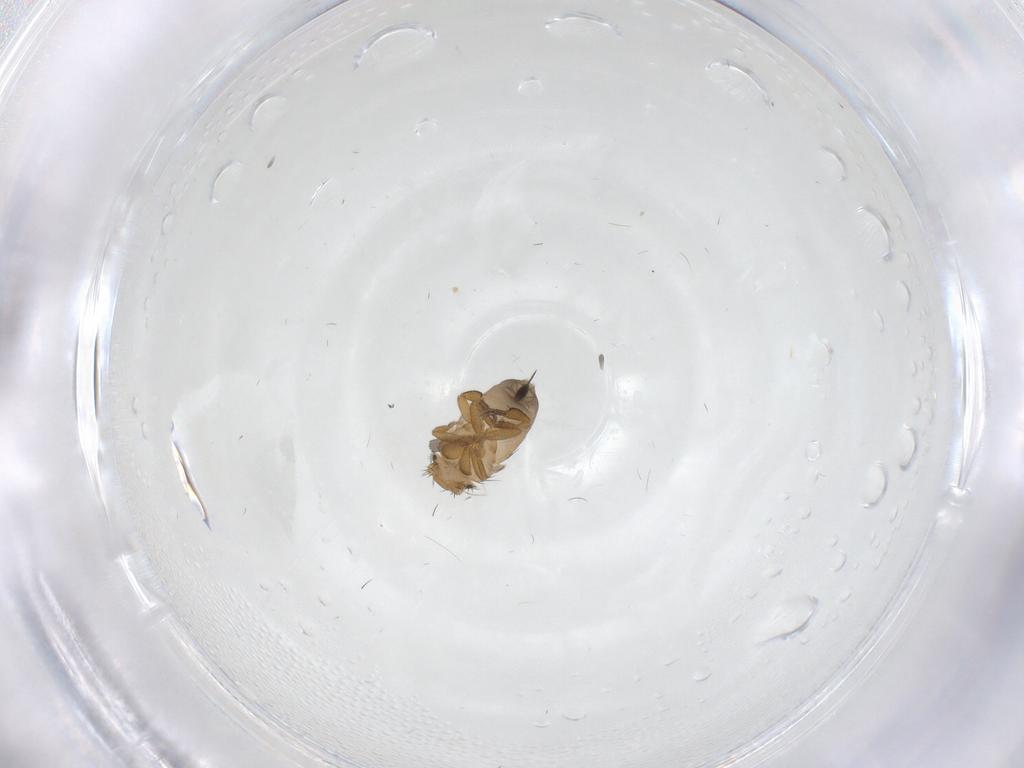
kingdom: Animalia
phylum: Arthropoda
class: Insecta
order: Diptera
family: Phoridae
